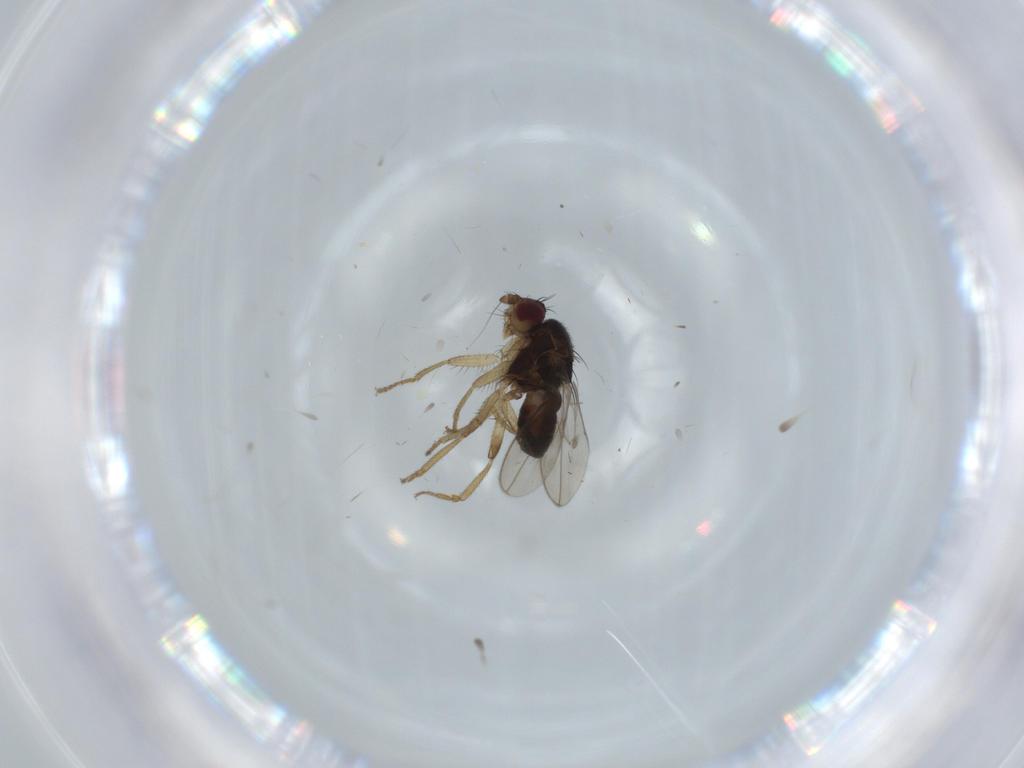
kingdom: Animalia
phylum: Arthropoda
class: Insecta
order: Diptera
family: Cecidomyiidae
